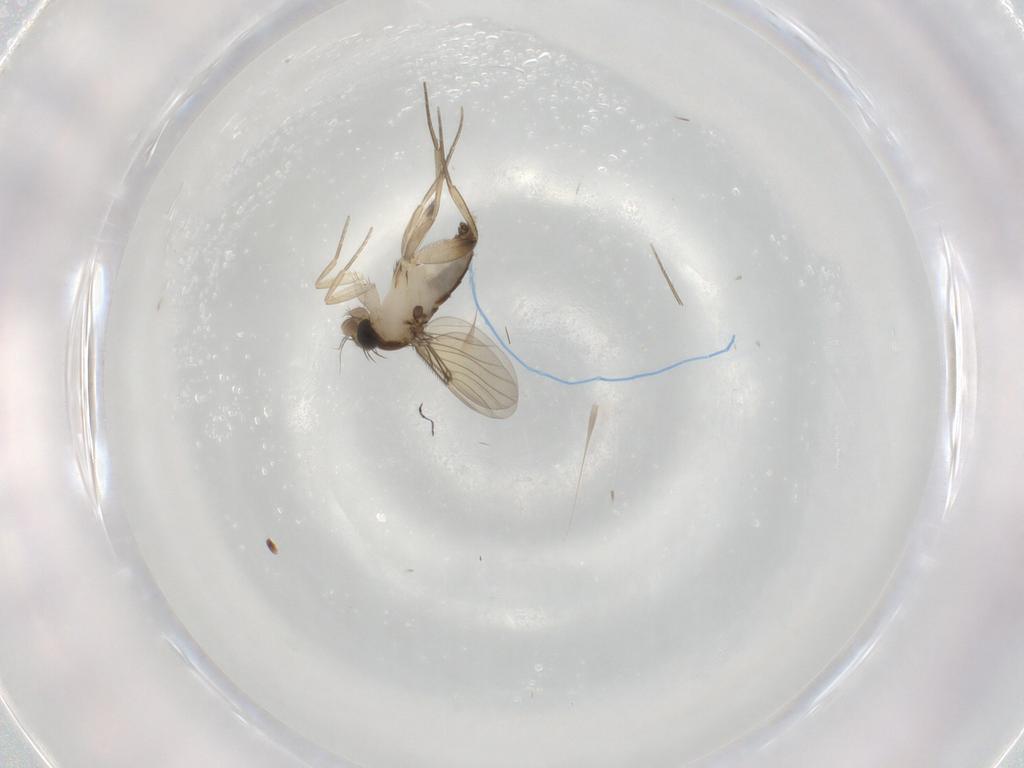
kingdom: Animalia
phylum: Arthropoda
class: Insecta
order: Diptera
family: Phoridae
